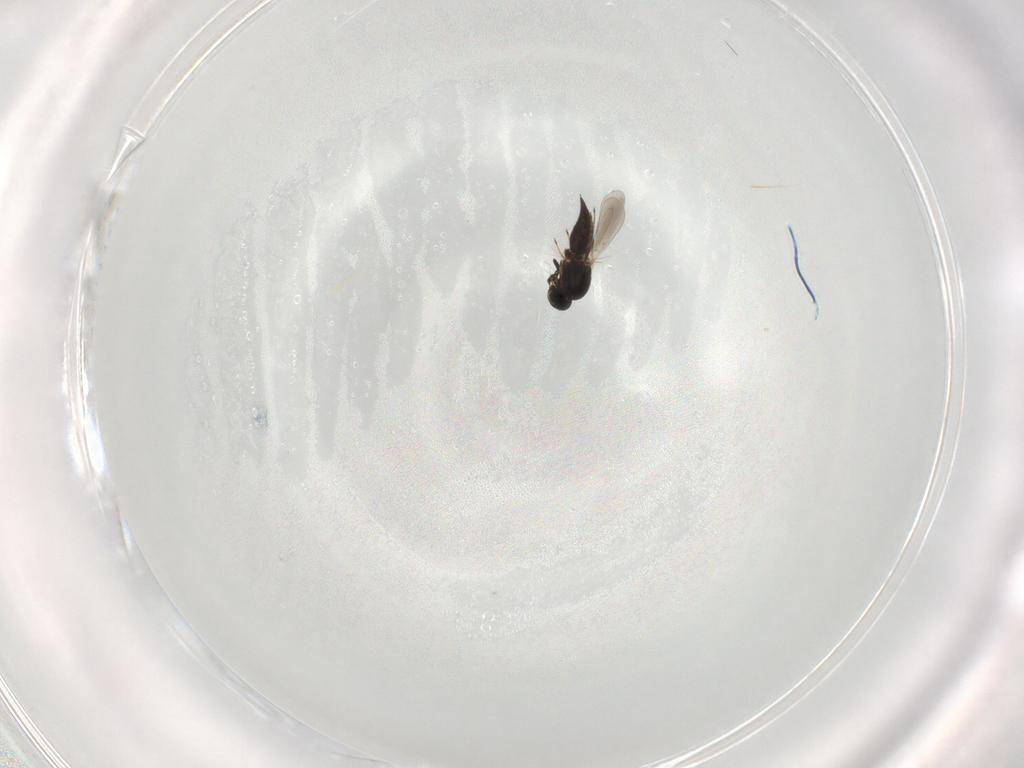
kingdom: Animalia
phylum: Arthropoda
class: Insecta
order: Hymenoptera
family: Platygastridae
